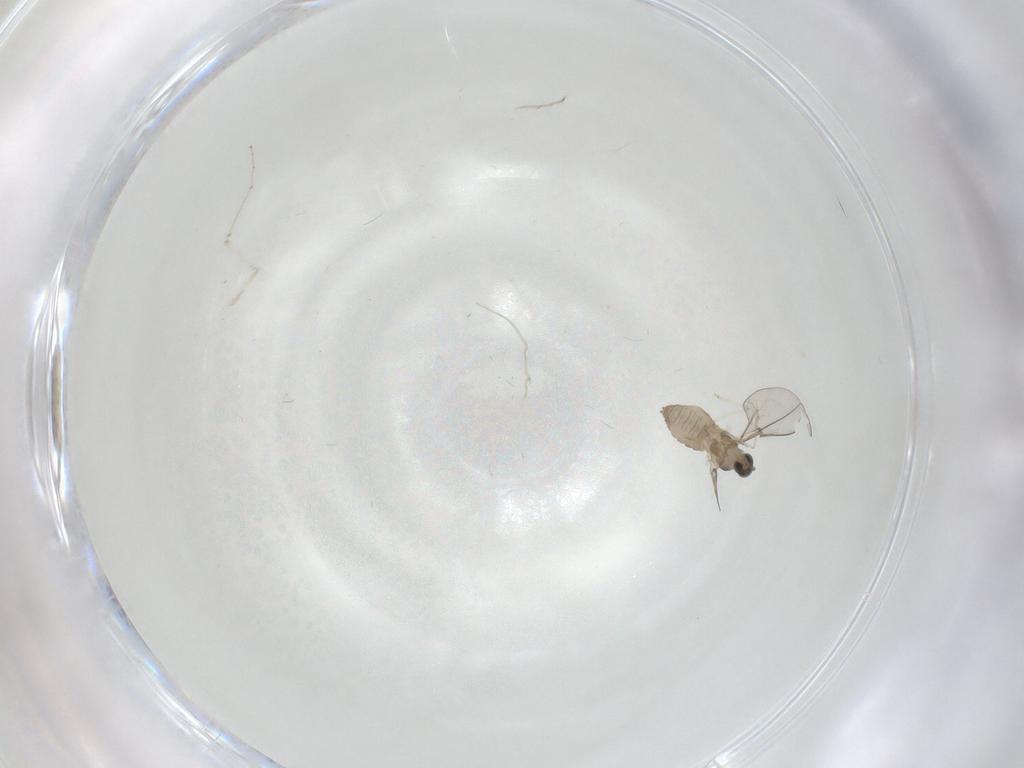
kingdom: Animalia
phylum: Arthropoda
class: Insecta
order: Diptera
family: Cecidomyiidae
